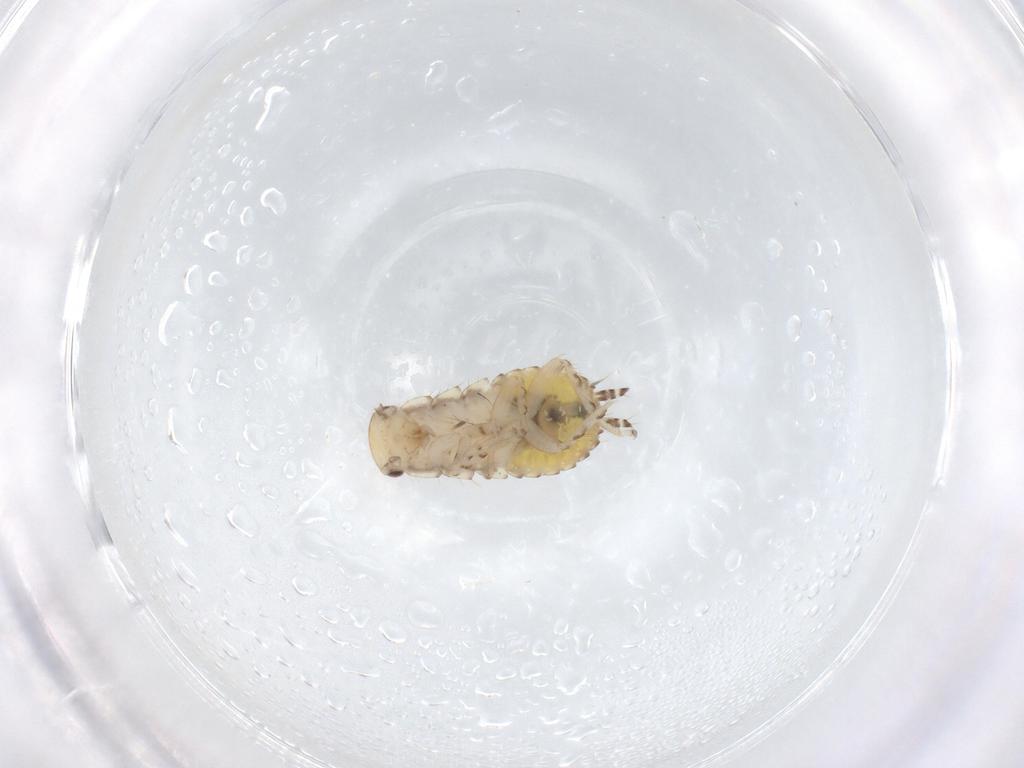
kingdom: Animalia
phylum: Arthropoda
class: Insecta
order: Blattodea
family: Ectobiidae
